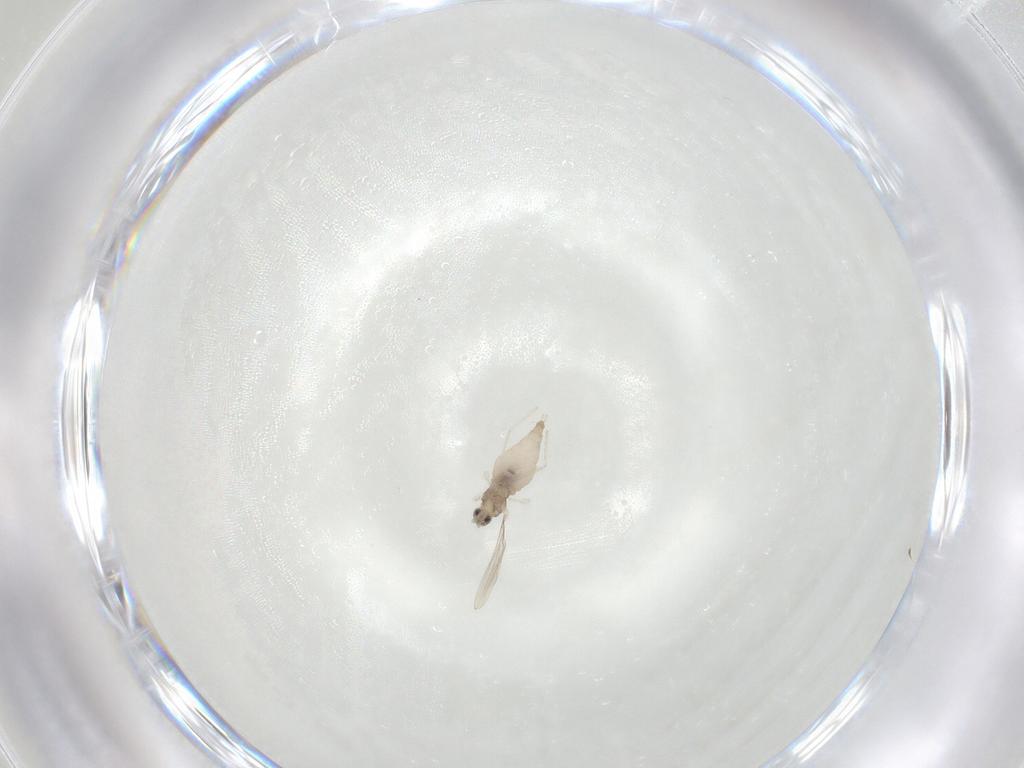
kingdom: Animalia
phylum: Arthropoda
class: Insecta
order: Diptera
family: Cecidomyiidae
